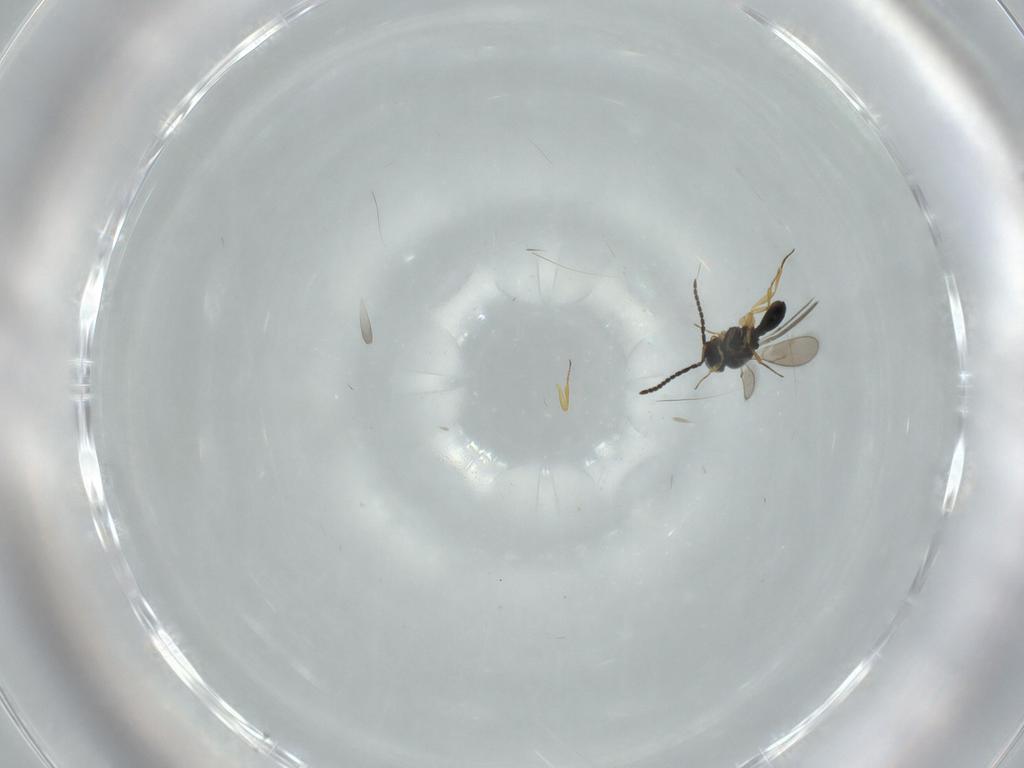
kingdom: Animalia
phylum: Arthropoda
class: Insecta
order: Hymenoptera
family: Scelionidae
